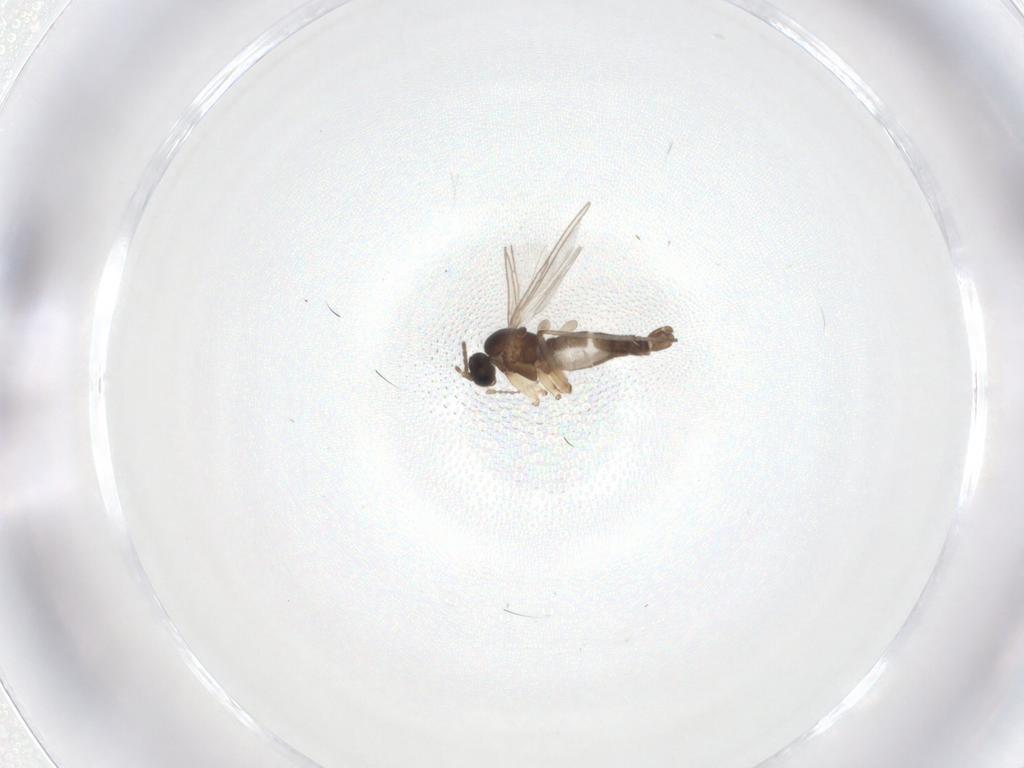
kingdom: Animalia
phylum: Arthropoda
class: Insecta
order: Diptera
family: Sciaridae
